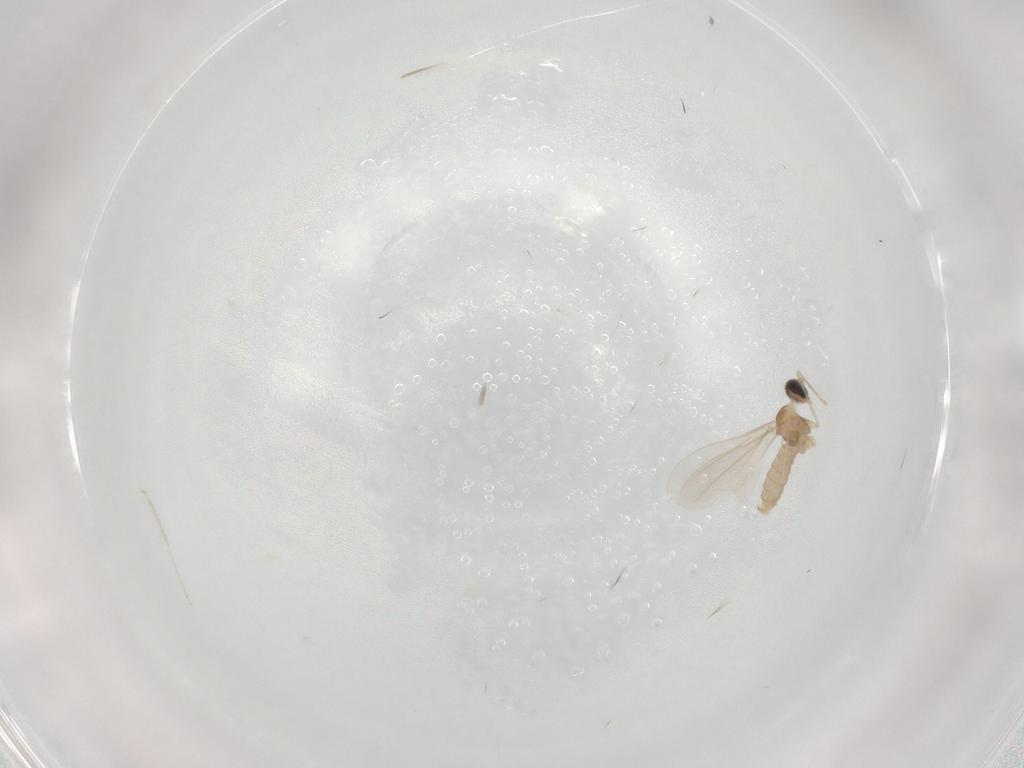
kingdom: Animalia
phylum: Arthropoda
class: Insecta
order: Diptera
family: Cecidomyiidae
